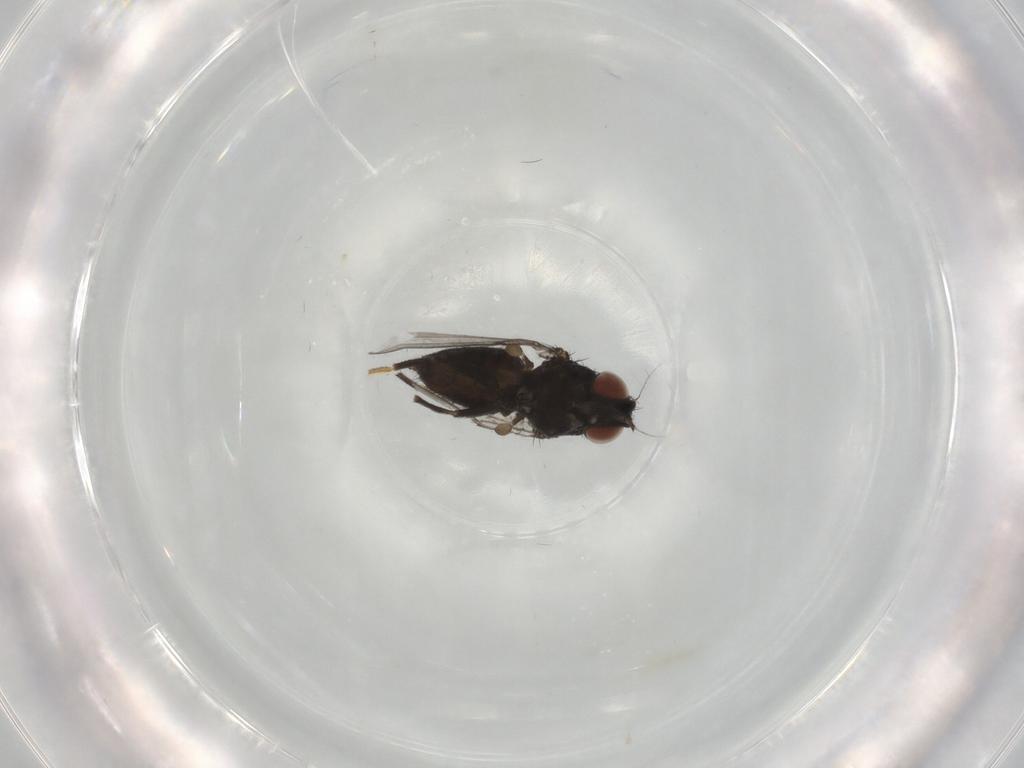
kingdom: Animalia
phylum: Arthropoda
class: Insecta
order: Diptera
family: Milichiidae
